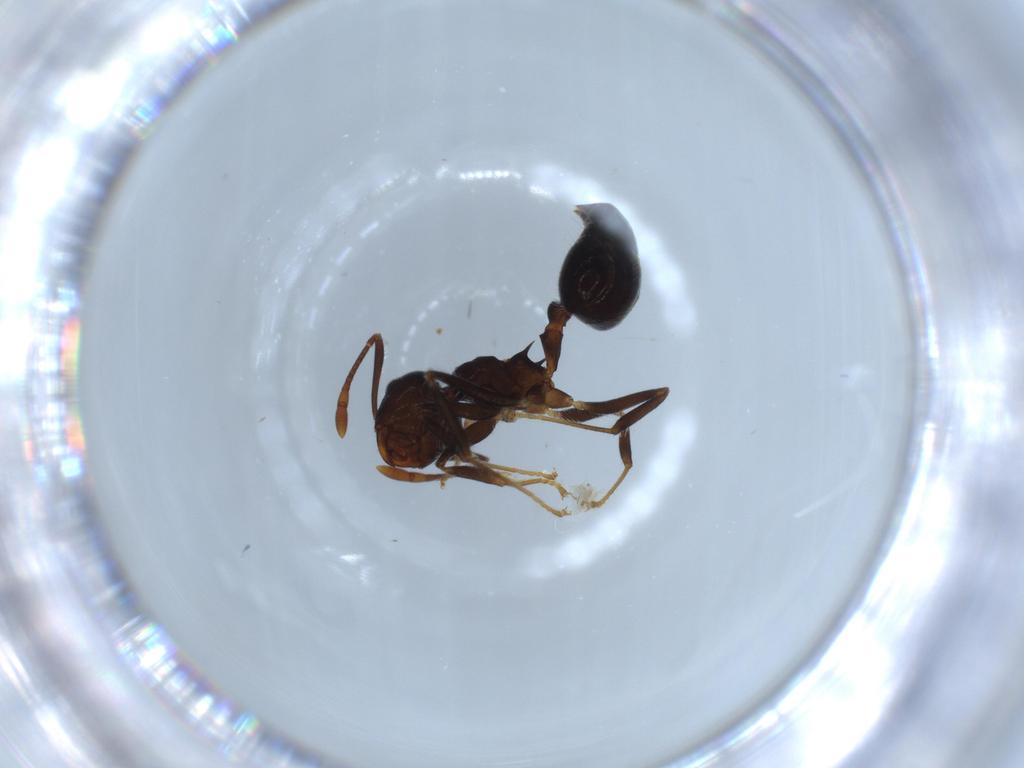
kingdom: Animalia
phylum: Arthropoda
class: Insecta
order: Hymenoptera
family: Formicidae
